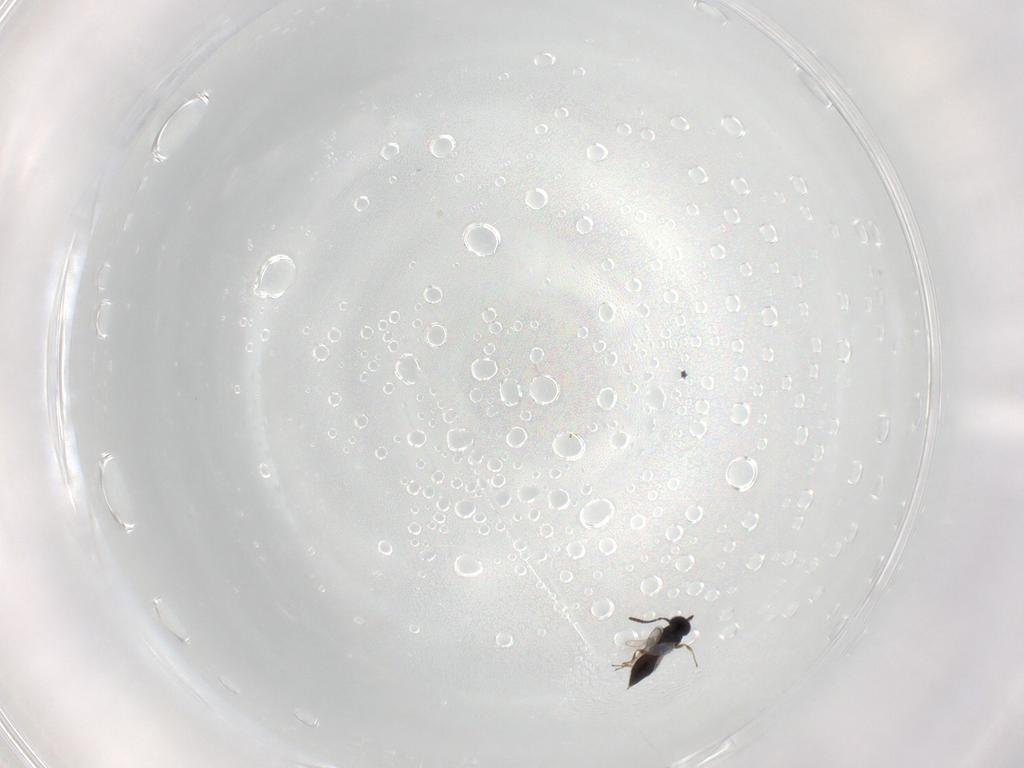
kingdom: Animalia
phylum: Arthropoda
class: Insecta
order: Hymenoptera
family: Scelionidae
